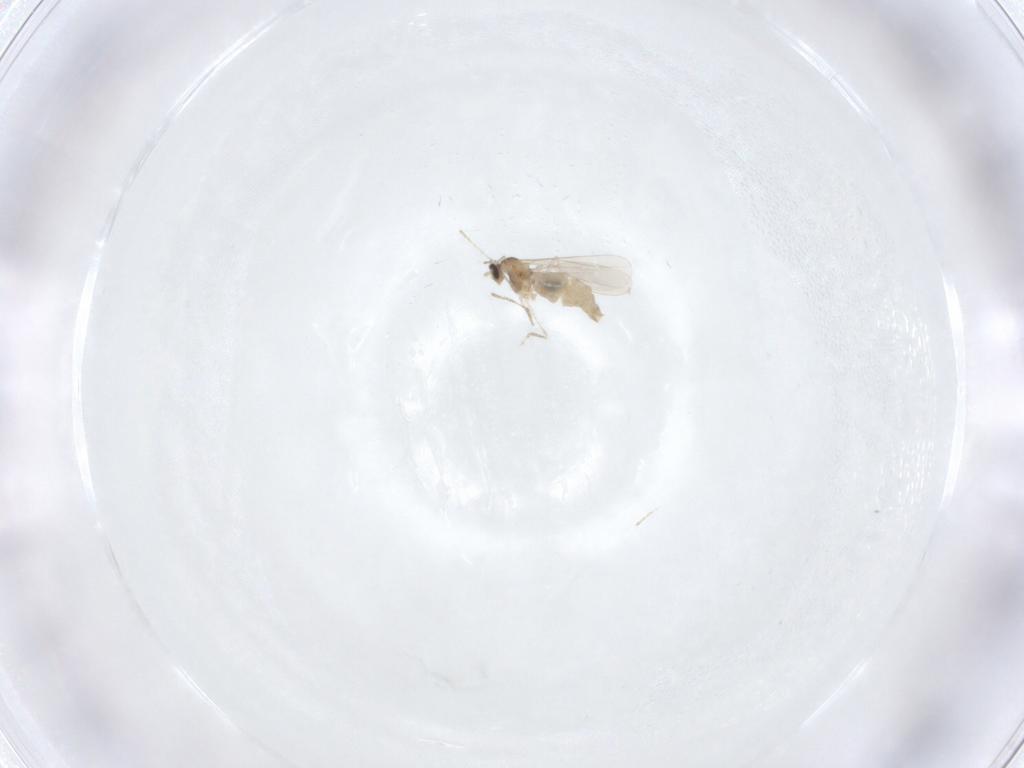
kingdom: Animalia
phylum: Arthropoda
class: Insecta
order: Diptera
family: Cecidomyiidae
